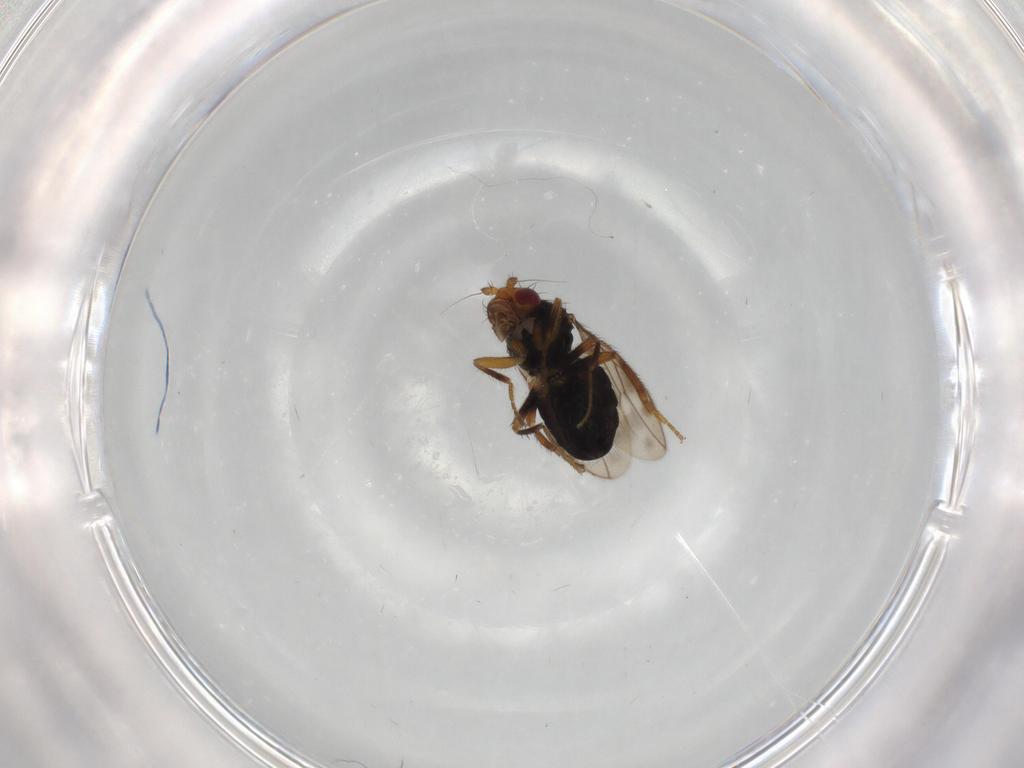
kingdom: Animalia
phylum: Arthropoda
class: Insecta
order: Diptera
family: Sphaeroceridae
